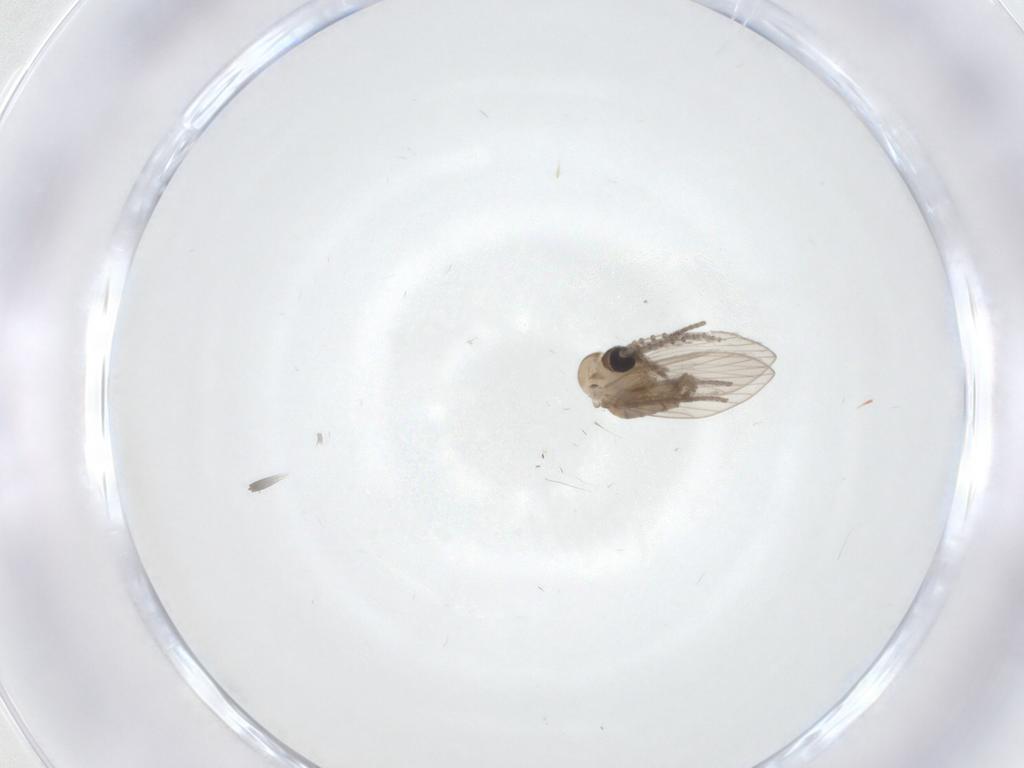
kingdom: Animalia
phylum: Arthropoda
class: Insecta
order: Diptera
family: Psychodidae
